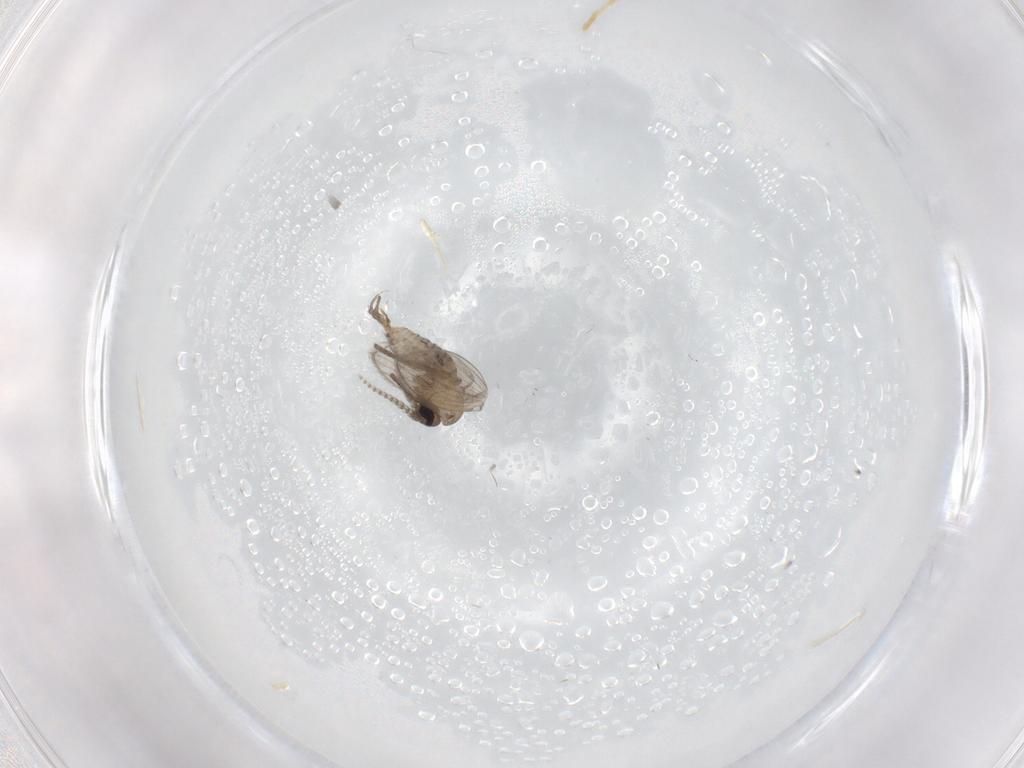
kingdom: Animalia
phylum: Arthropoda
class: Insecta
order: Diptera
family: Psychodidae
